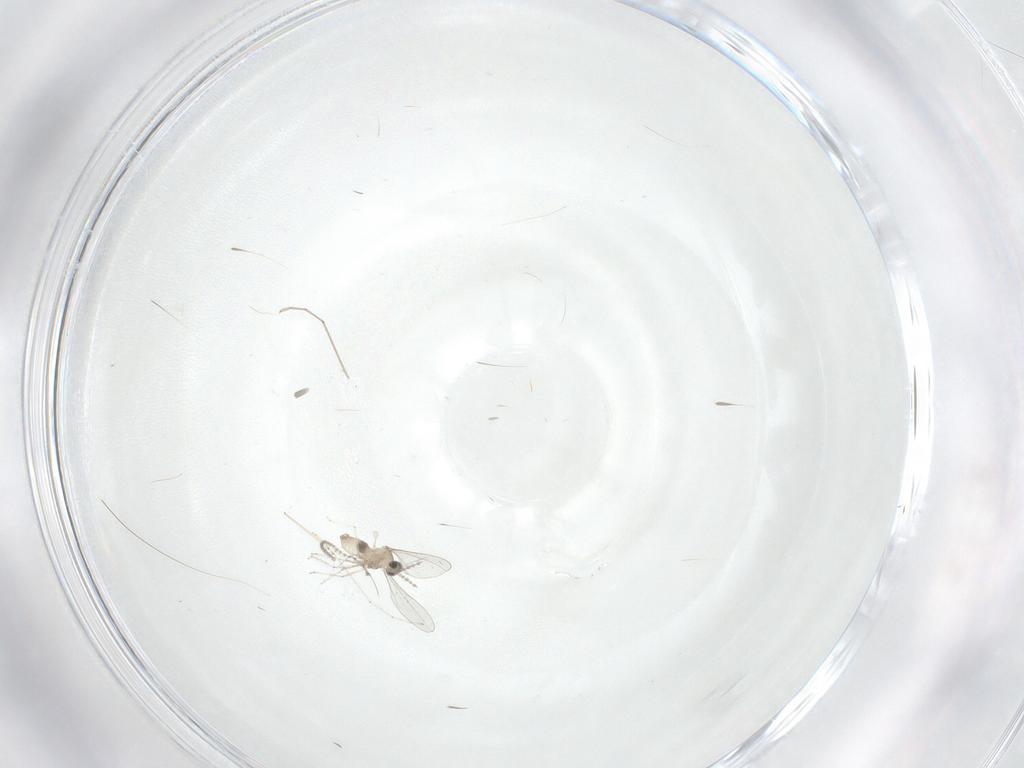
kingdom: Animalia
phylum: Arthropoda
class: Insecta
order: Diptera
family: Cecidomyiidae
